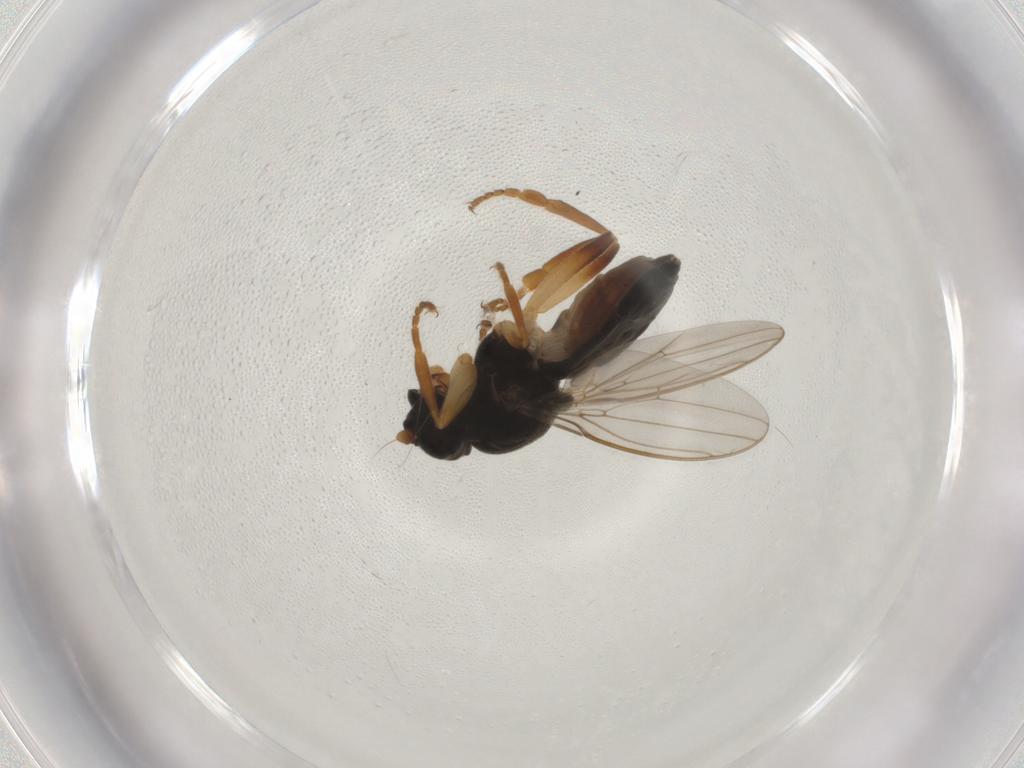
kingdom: Animalia
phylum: Arthropoda
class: Insecta
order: Diptera
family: Sphaeroceridae
